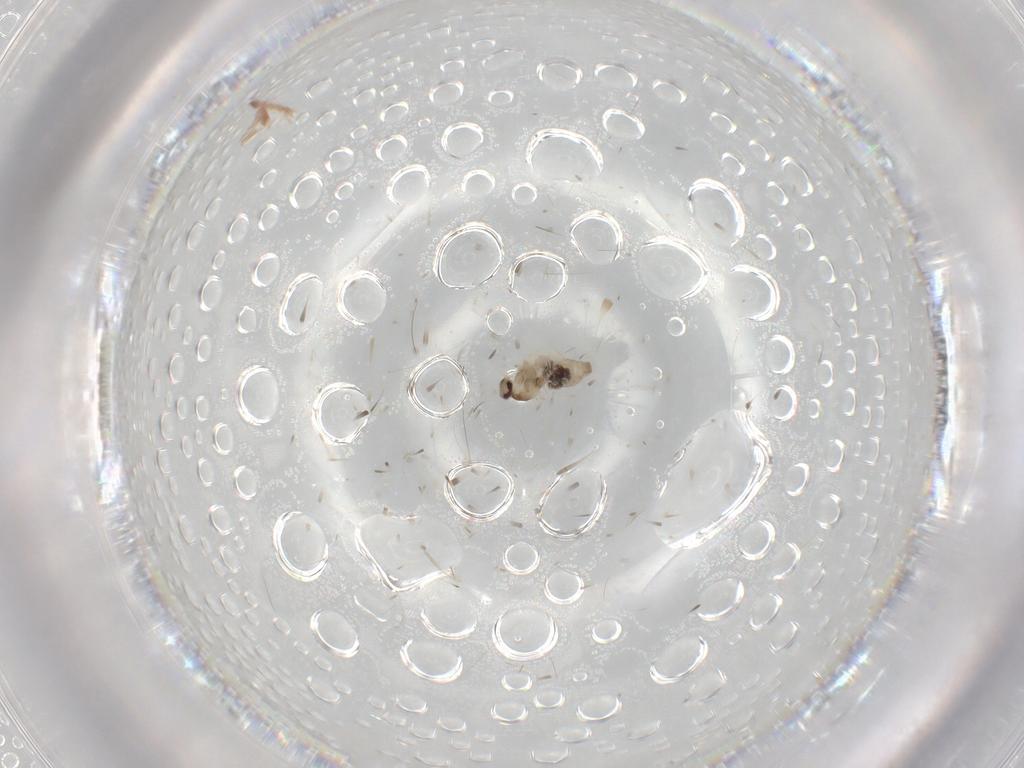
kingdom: Animalia
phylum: Arthropoda
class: Insecta
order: Diptera
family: Cecidomyiidae
